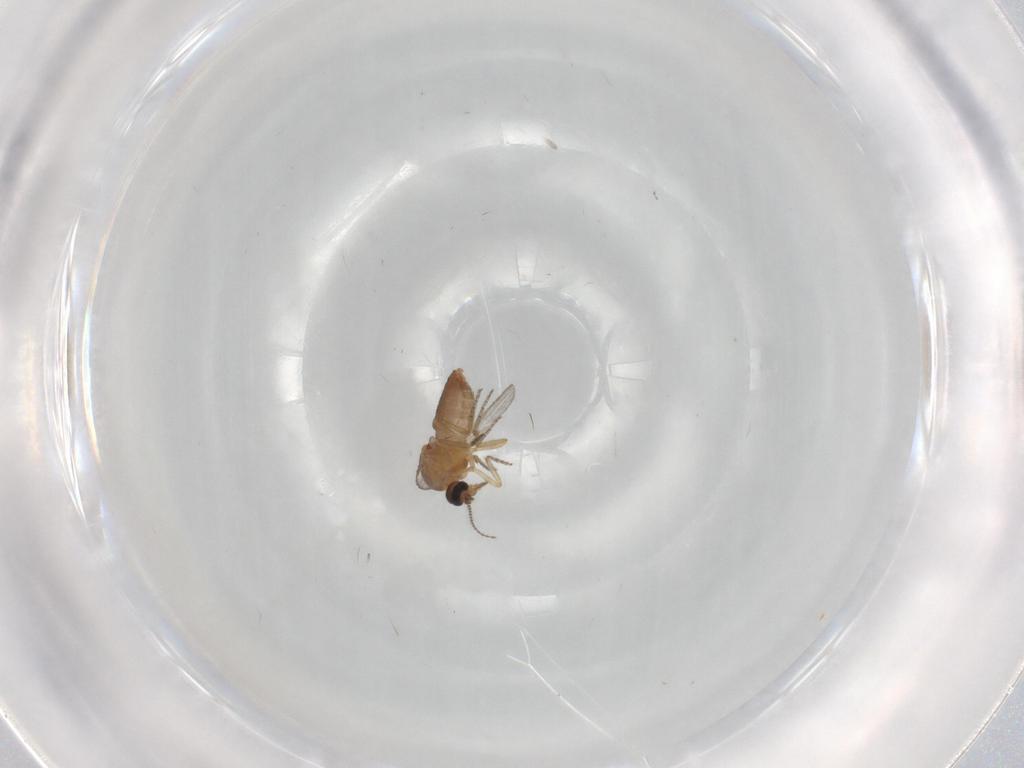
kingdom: Animalia
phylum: Arthropoda
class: Insecta
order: Diptera
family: Ceratopogonidae
